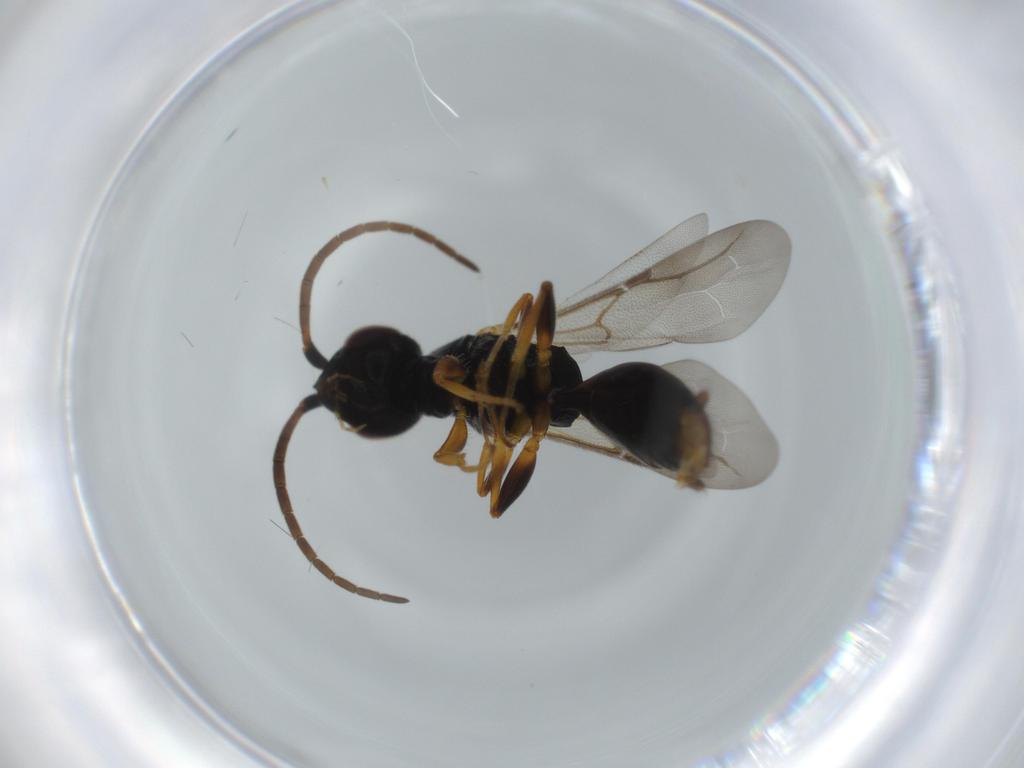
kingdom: Animalia
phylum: Arthropoda
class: Insecta
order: Hymenoptera
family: Bethylidae
